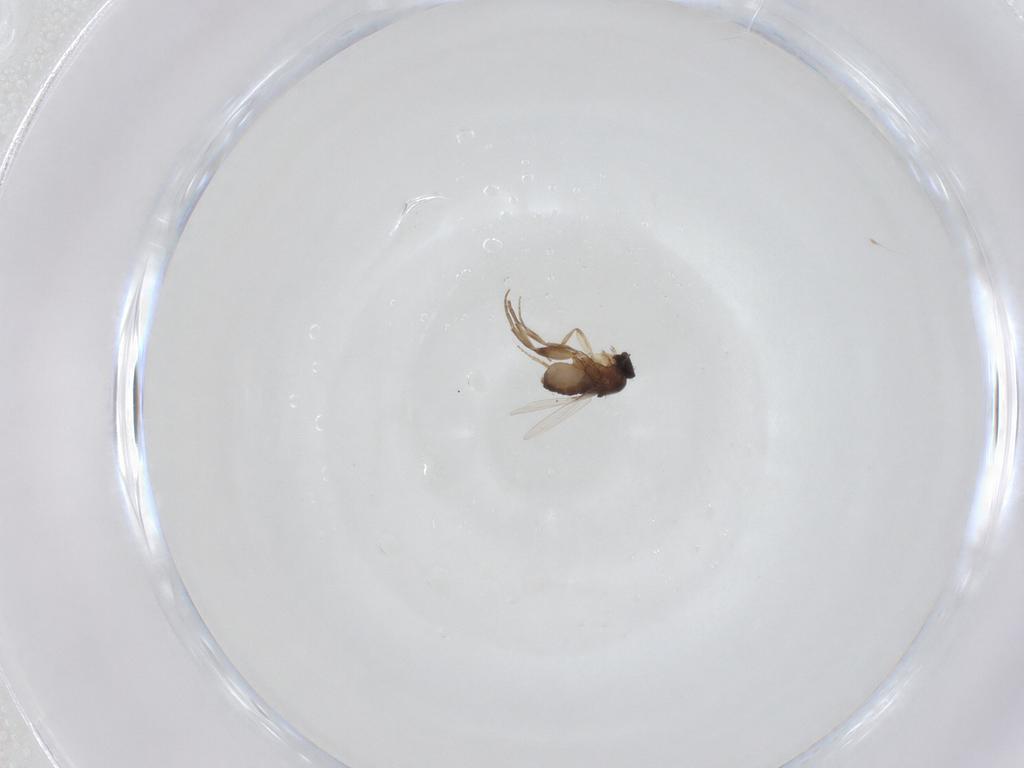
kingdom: Animalia
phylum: Arthropoda
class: Insecta
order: Diptera
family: Phoridae
